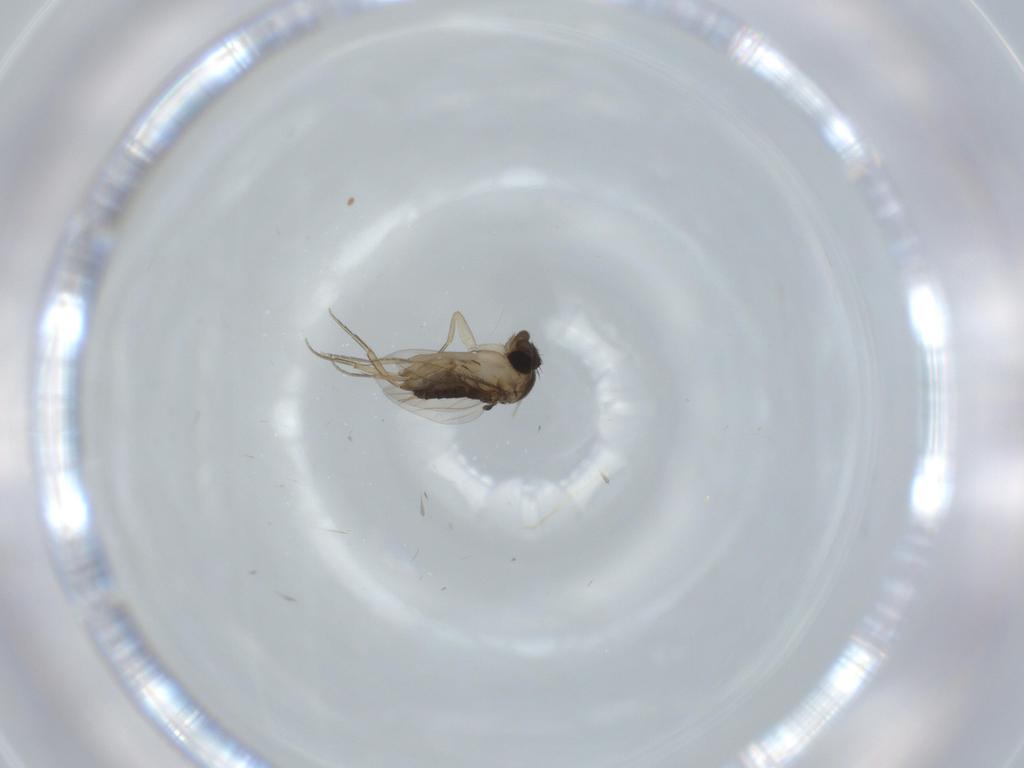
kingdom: Animalia
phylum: Arthropoda
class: Insecta
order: Diptera
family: Phoridae
